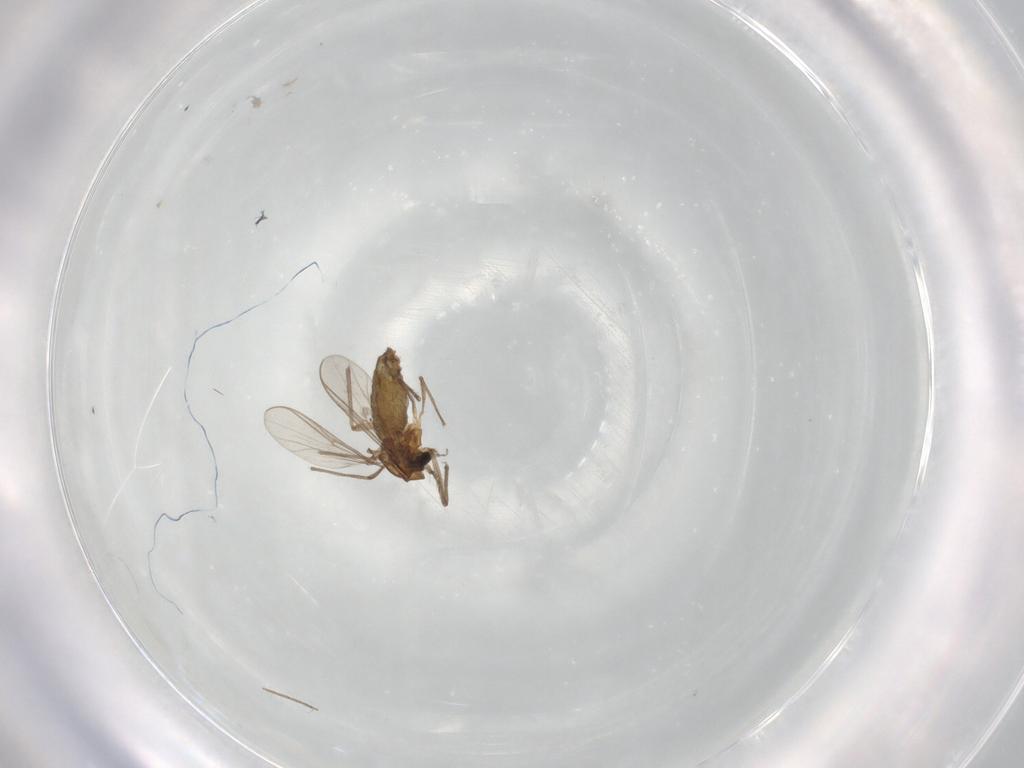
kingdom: Animalia
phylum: Arthropoda
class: Insecta
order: Diptera
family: Chironomidae
